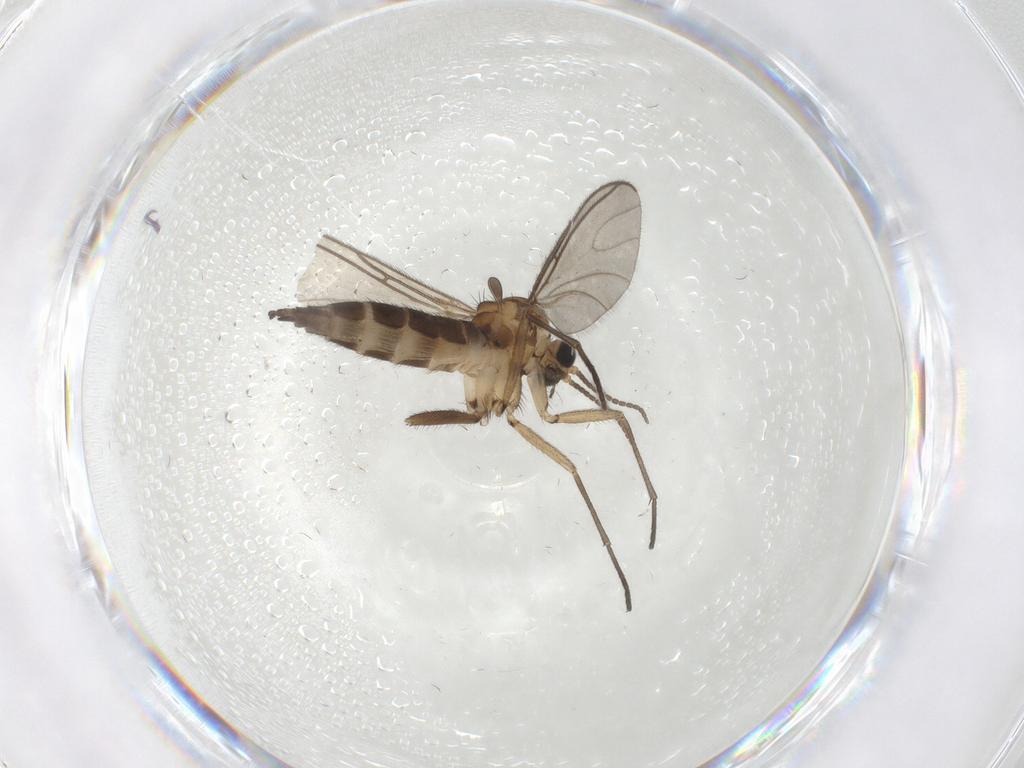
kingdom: Animalia
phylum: Arthropoda
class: Insecta
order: Diptera
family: Sciaridae
